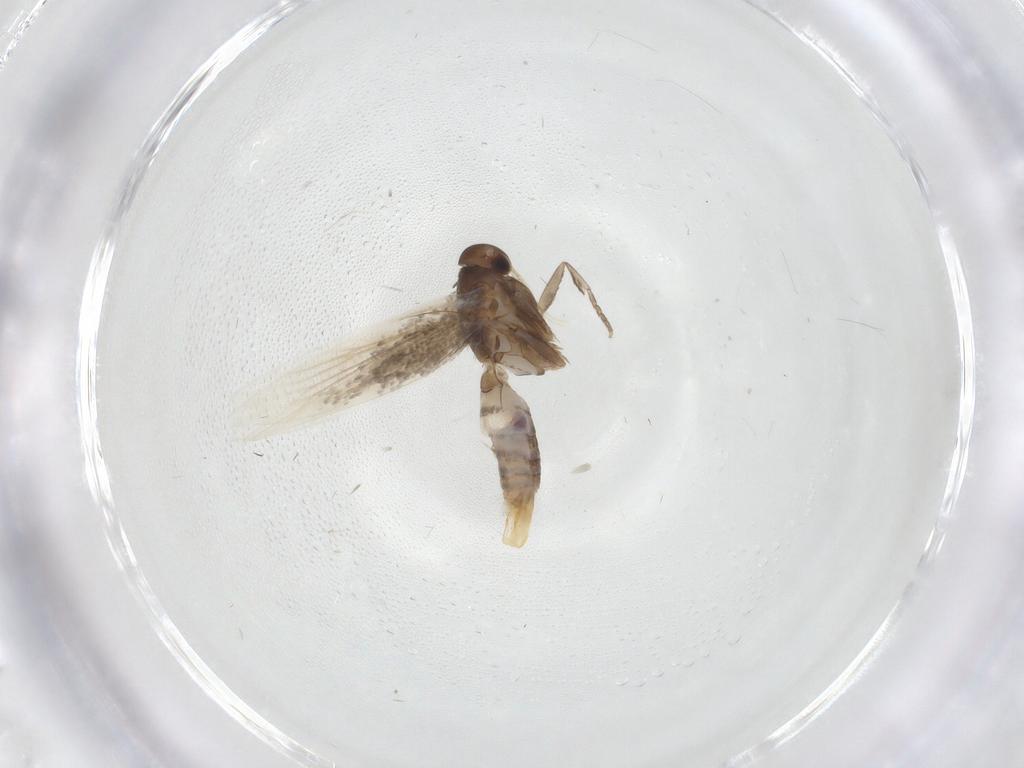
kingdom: Animalia
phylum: Arthropoda
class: Insecta
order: Lepidoptera
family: Elachistidae
